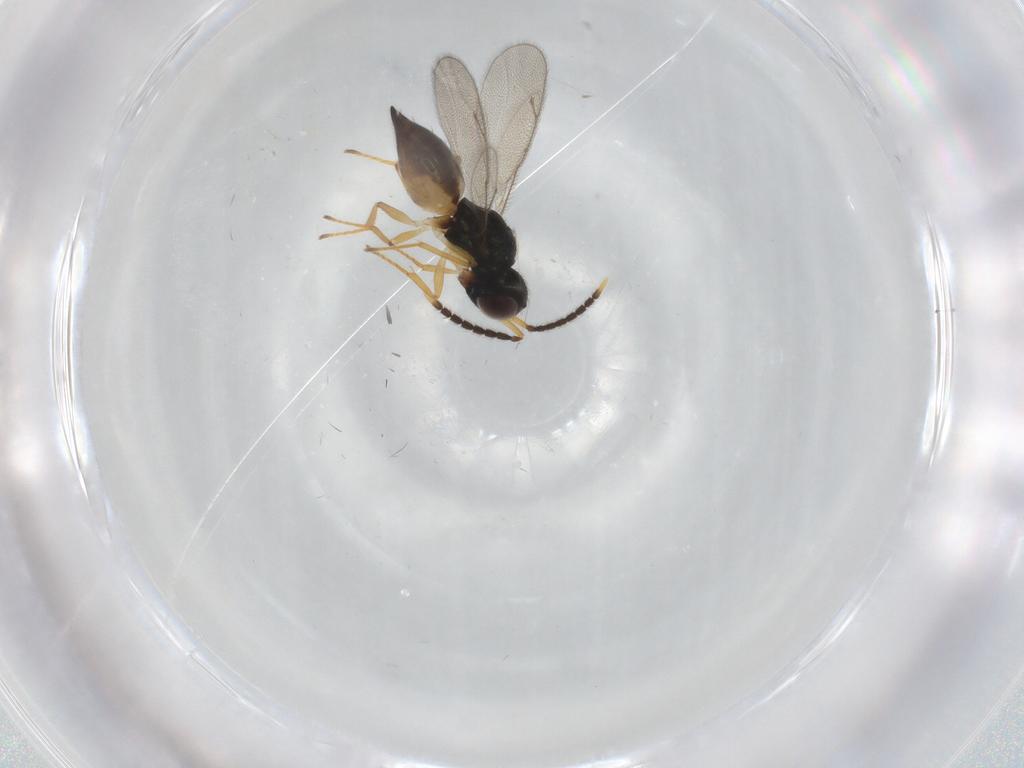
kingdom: Animalia
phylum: Arthropoda
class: Insecta
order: Hymenoptera
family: Pteromalidae
